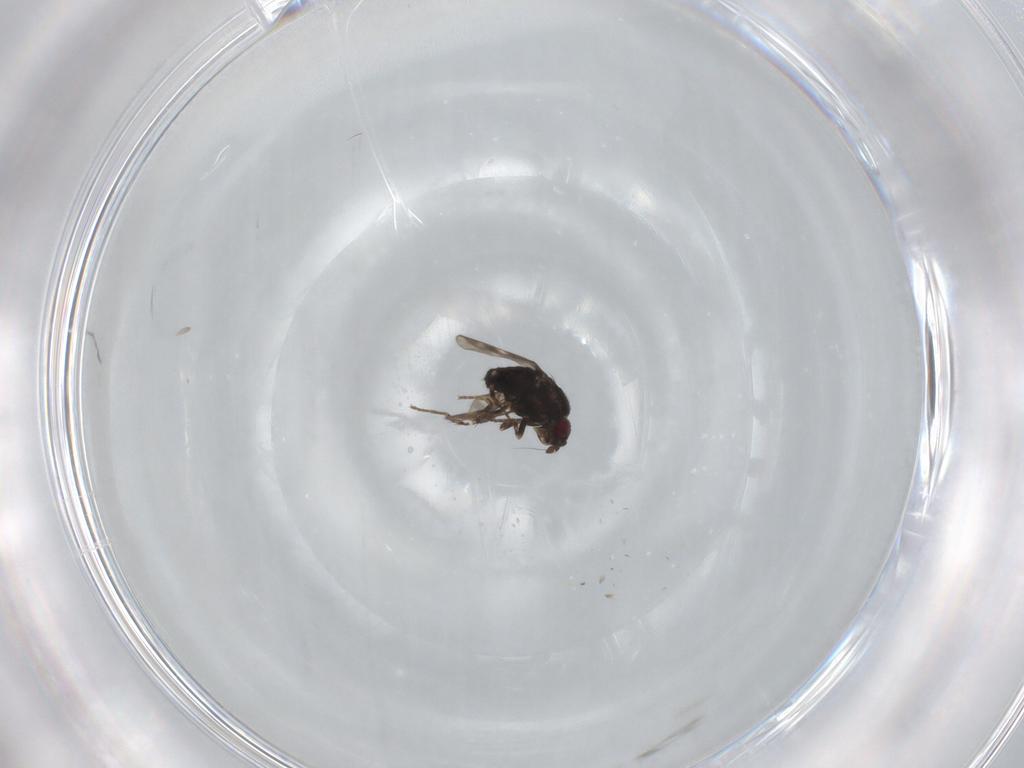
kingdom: Animalia
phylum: Arthropoda
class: Insecta
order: Diptera
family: Sphaeroceridae
